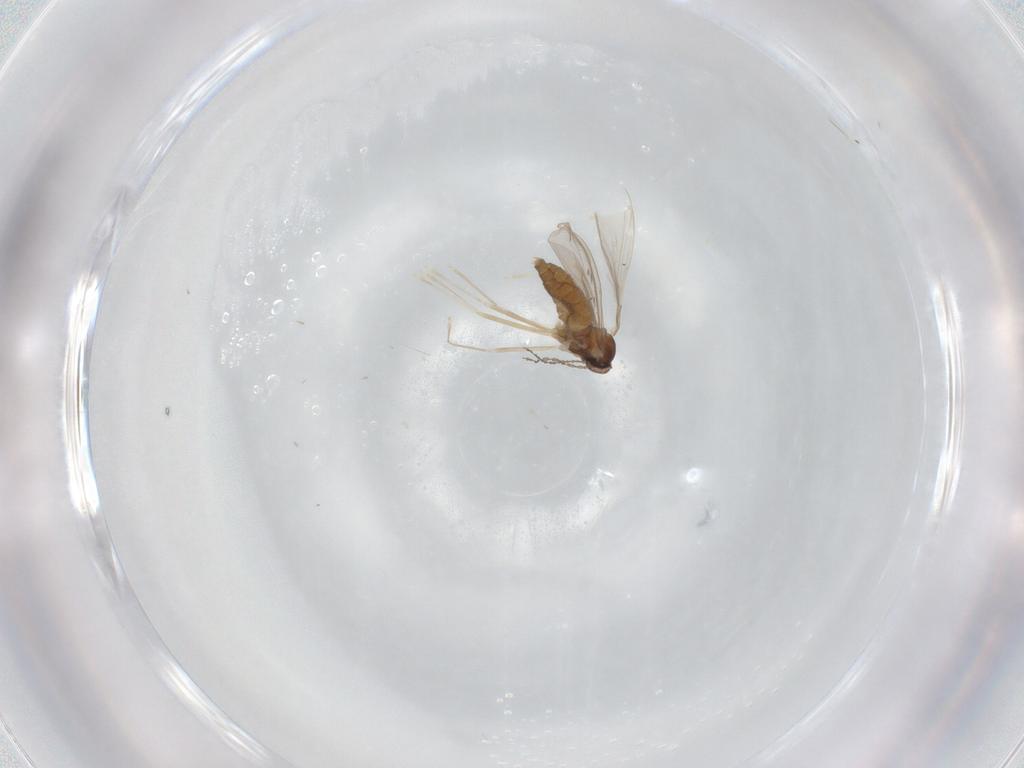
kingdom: Animalia
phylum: Arthropoda
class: Insecta
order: Diptera
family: Cecidomyiidae
